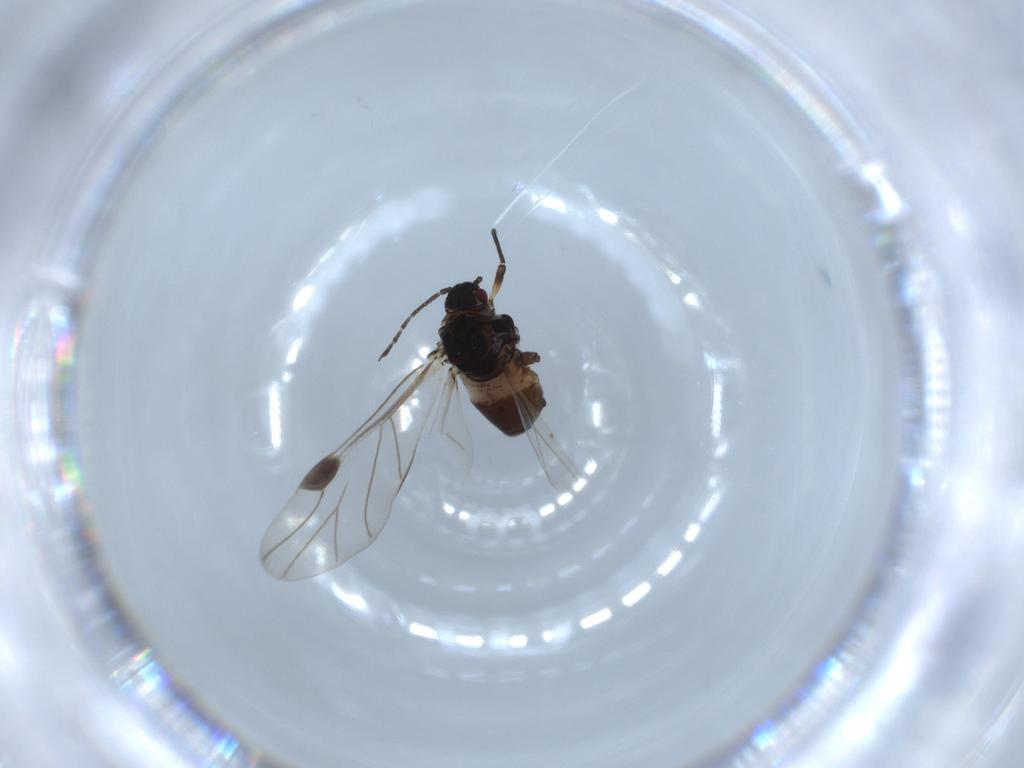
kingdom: Animalia
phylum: Arthropoda
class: Insecta
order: Hemiptera
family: Aphididae
